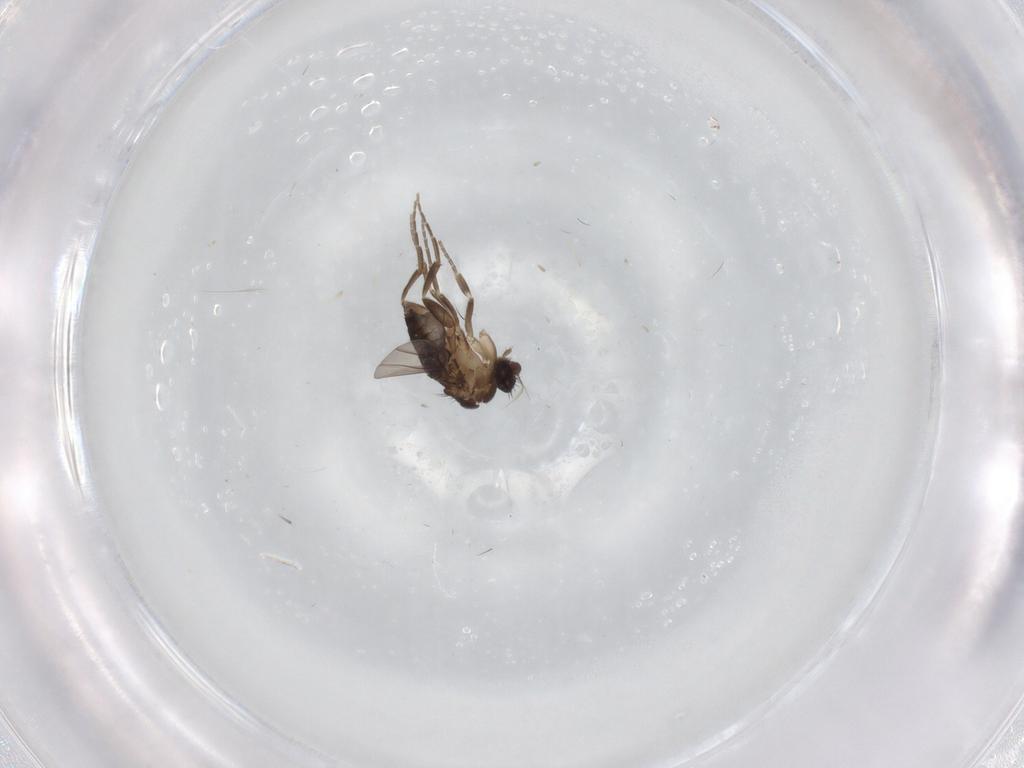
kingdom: Animalia
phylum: Arthropoda
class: Insecta
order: Diptera
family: Phoridae
